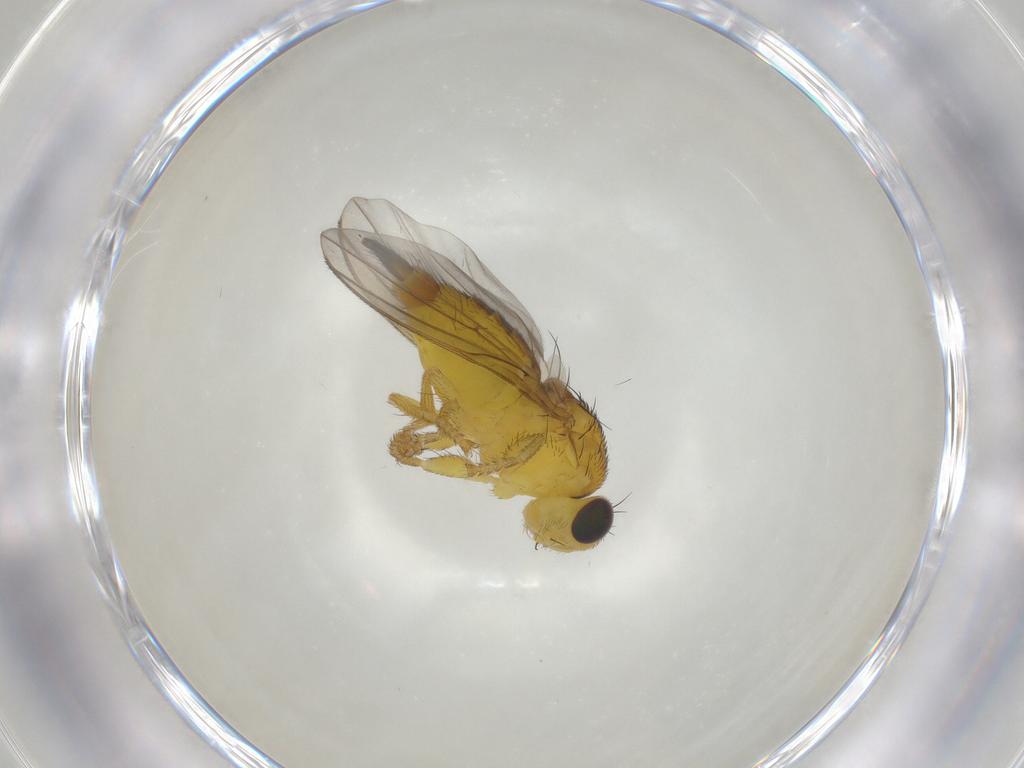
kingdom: Animalia
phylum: Arthropoda
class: Insecta
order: Diptera
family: Fergusoninidae
